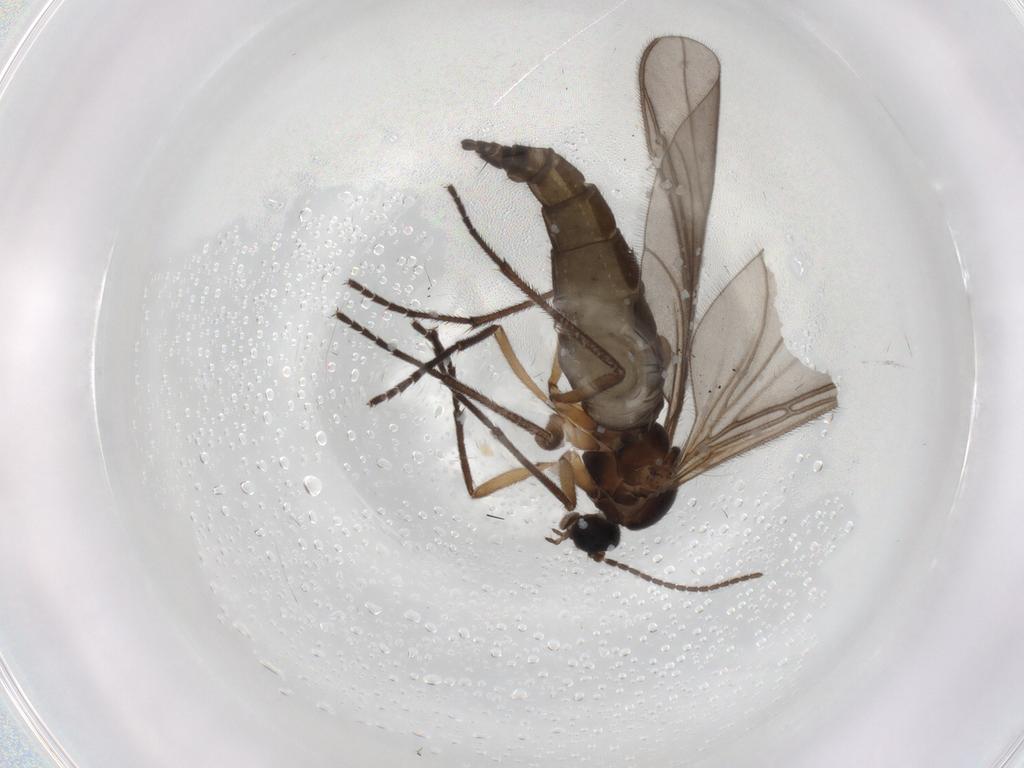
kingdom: Animalia
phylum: Arthropoda
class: Insecta
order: Diptera
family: Sciaridae
